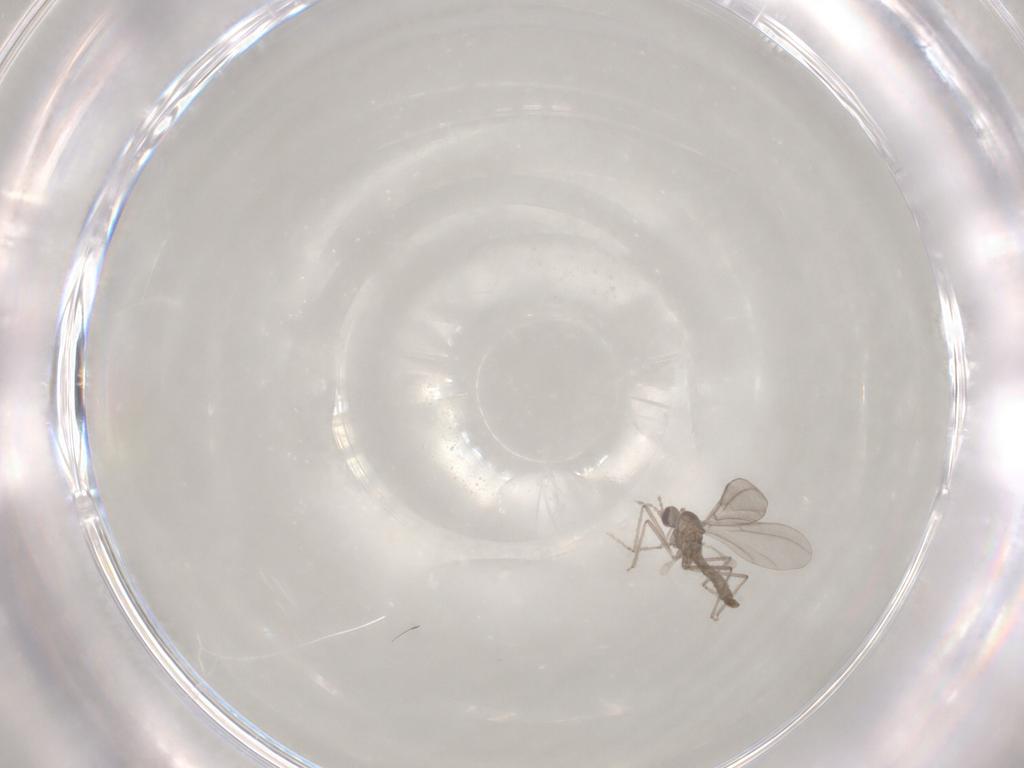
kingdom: Animalia
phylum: Arthropoda
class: Insecta
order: Diptera
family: Cecidomyiidae
